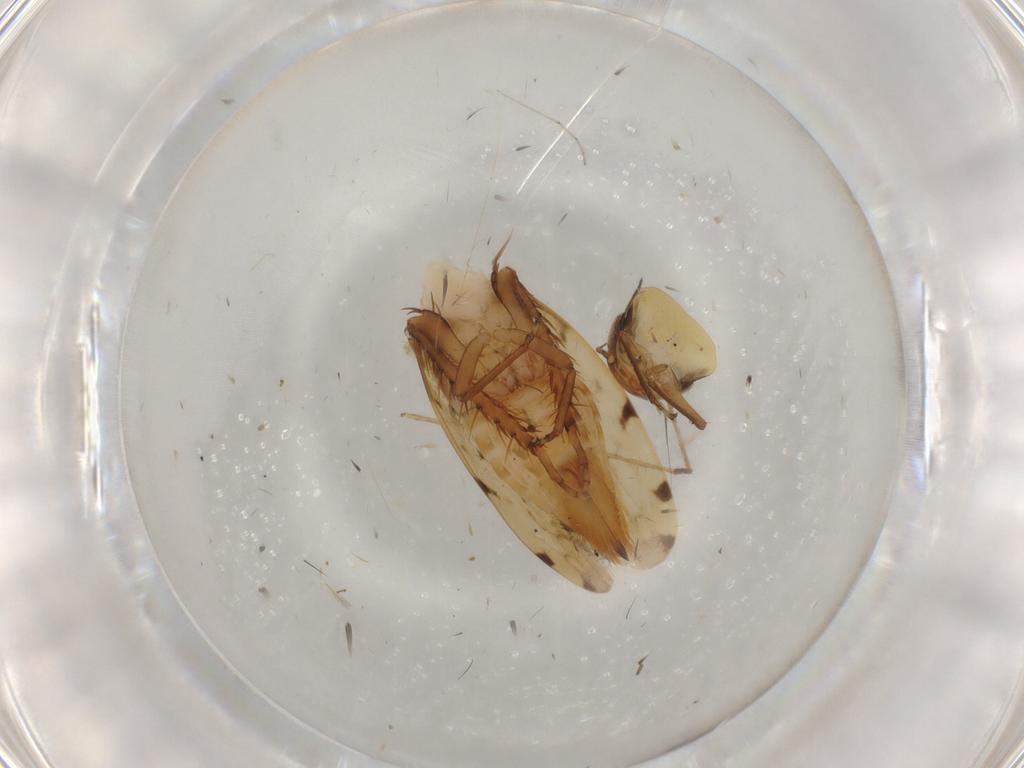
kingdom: Animalia
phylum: Arthropoda
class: Insecta
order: Hemiptera
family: Cicadellidae
